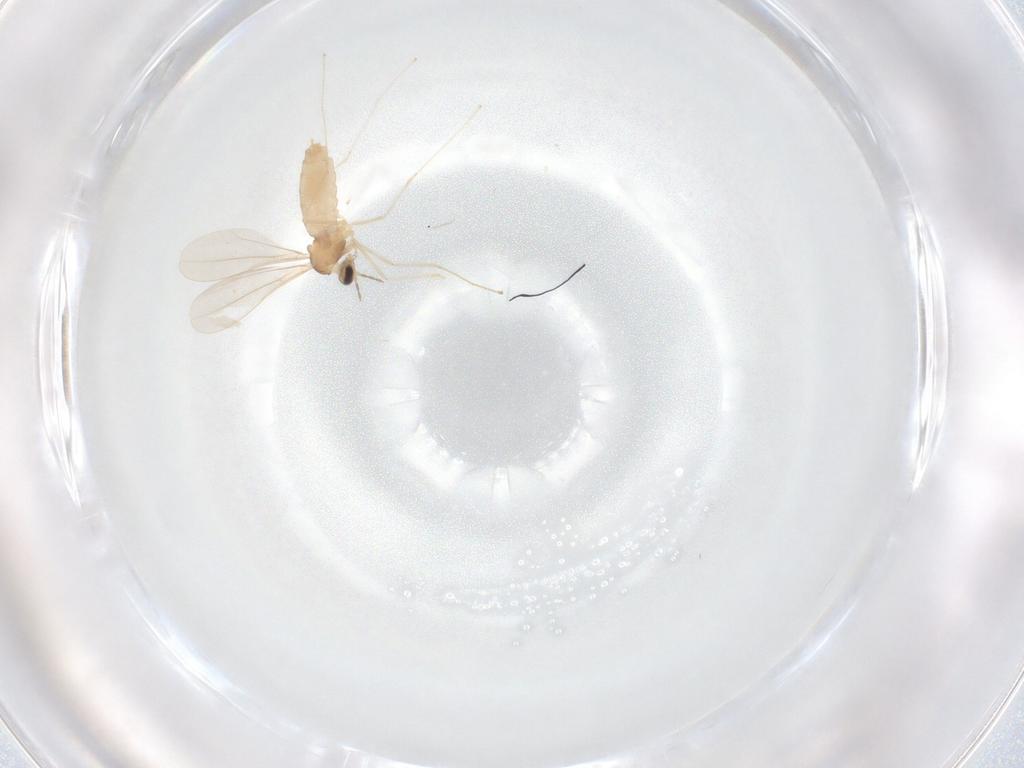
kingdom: Animalia
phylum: Arthropoda
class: Insecta
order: Diptera
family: Cecidomyiidae
